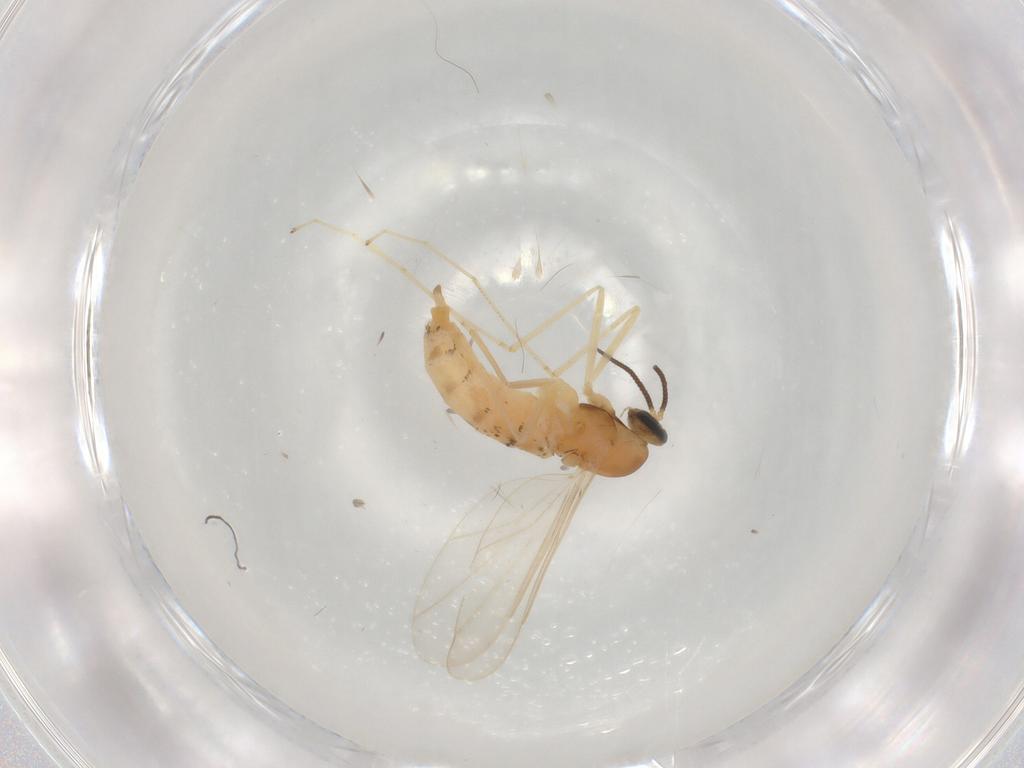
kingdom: Animalia
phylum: Arthropoda
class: Insecta
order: Diptera
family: Cecidomyiidae
